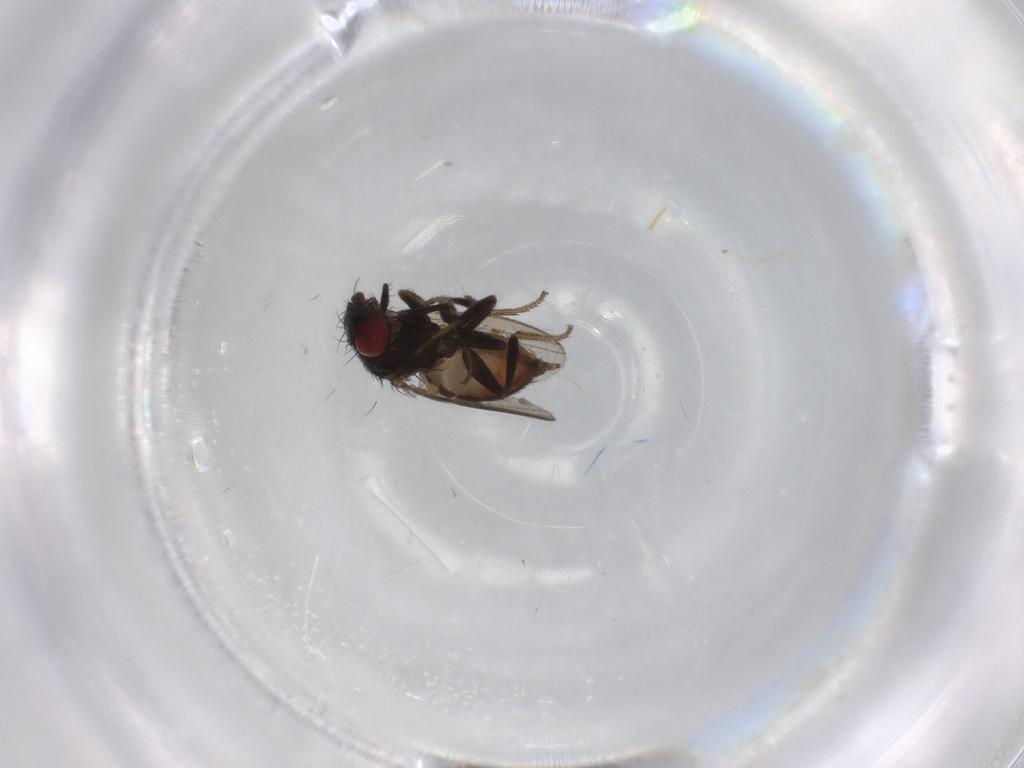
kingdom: Animalia
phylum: Arthropoda
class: Insecta
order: Diptera
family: Milichiidae
